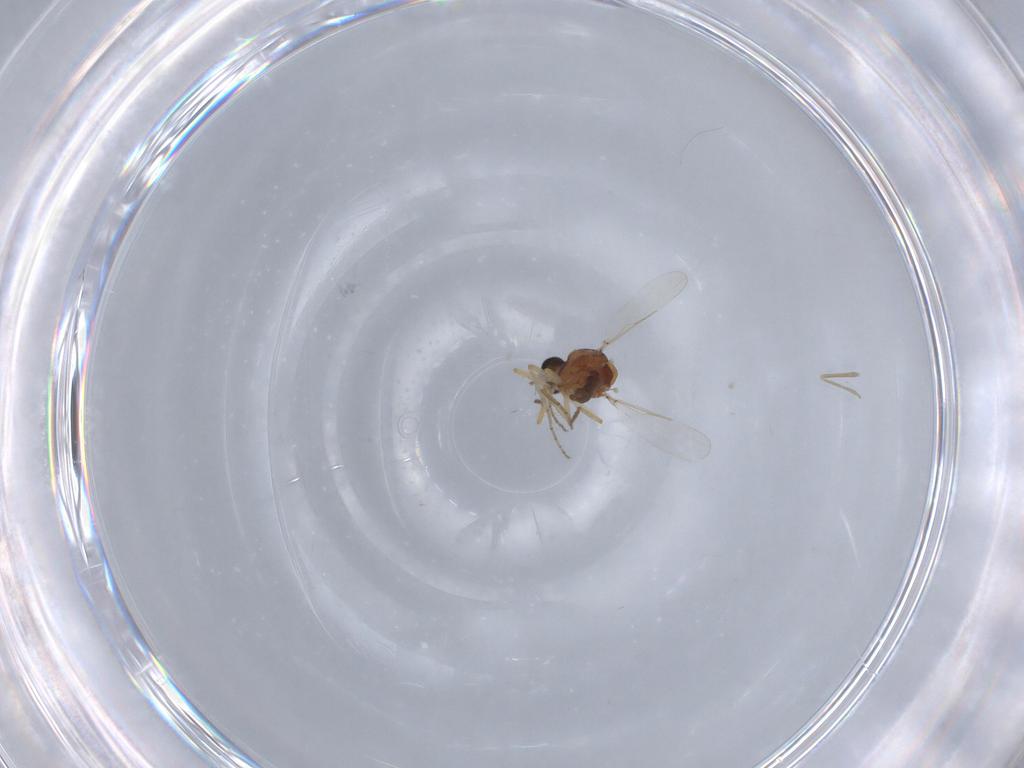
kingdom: Animalia
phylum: Arthropoda
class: Insecta
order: Diptera
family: Ceratopogonidae
